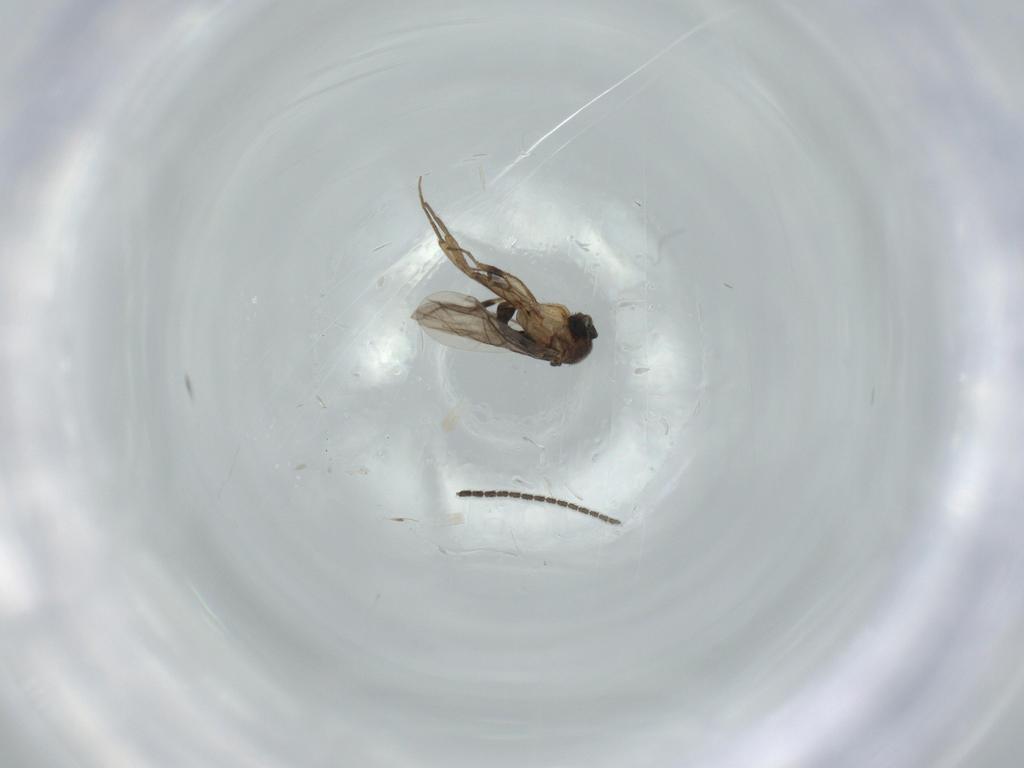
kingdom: Animalia
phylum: Arthropoda
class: Insecta
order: Diptera
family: Phoridae
